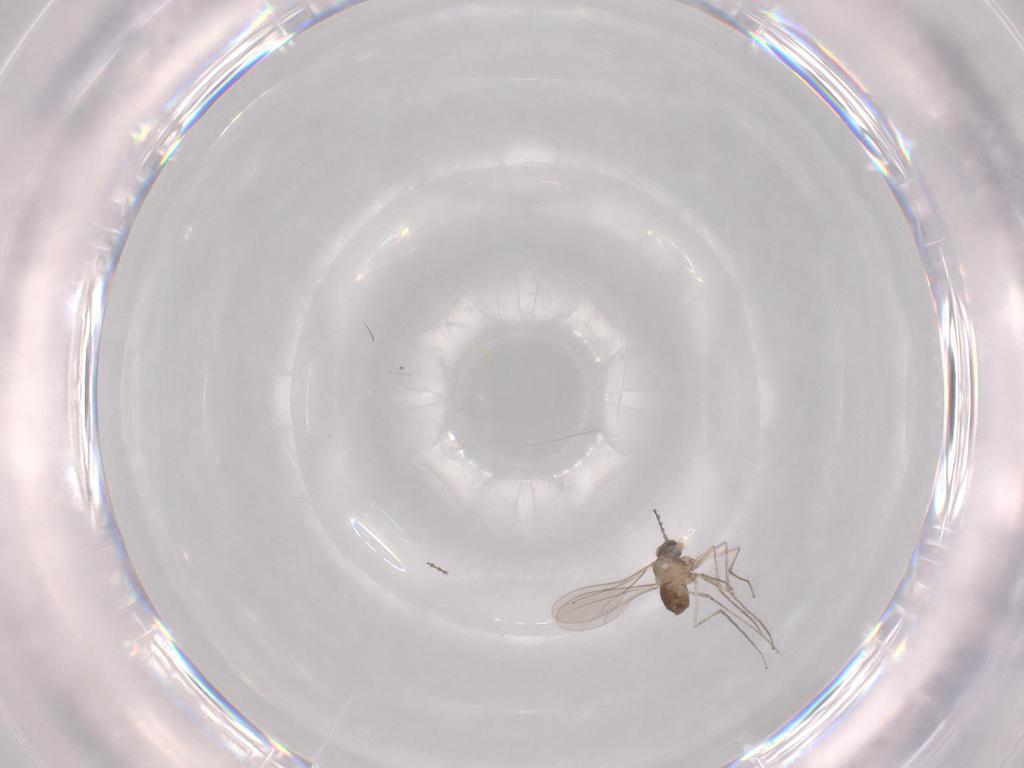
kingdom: Animalia
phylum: Arthropoda
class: Insecta
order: Diptera
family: Cecidomyiidae
